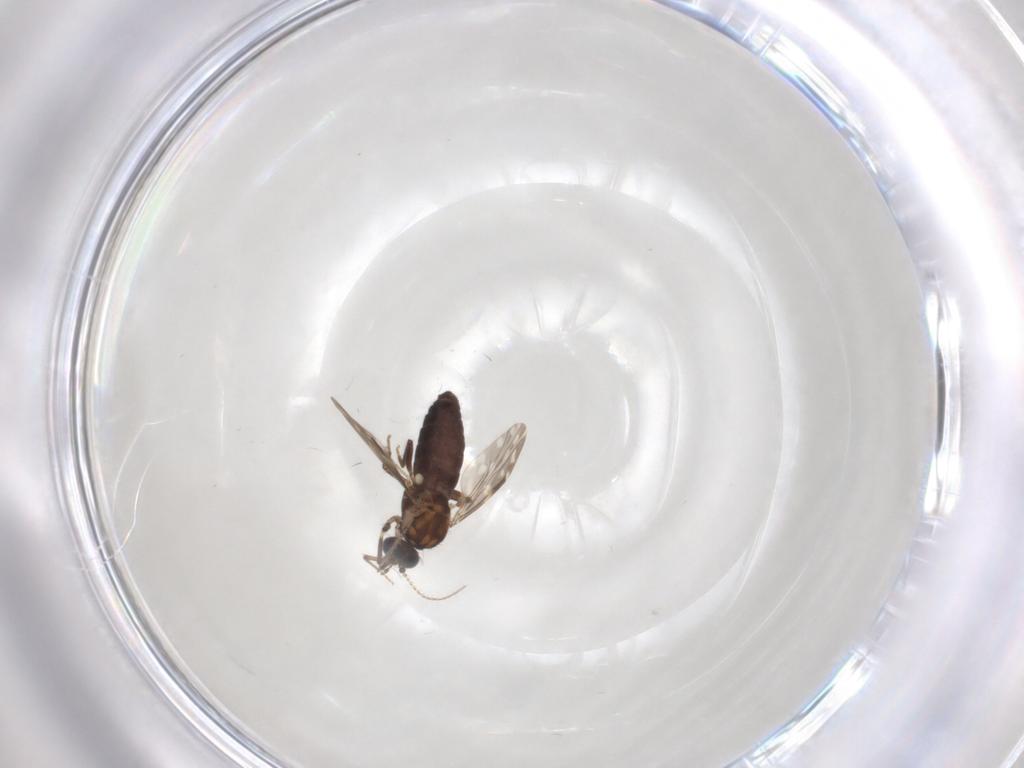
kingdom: Animalia
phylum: Arthropoda
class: Insecta
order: Diptera
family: Ceratopogonidae
